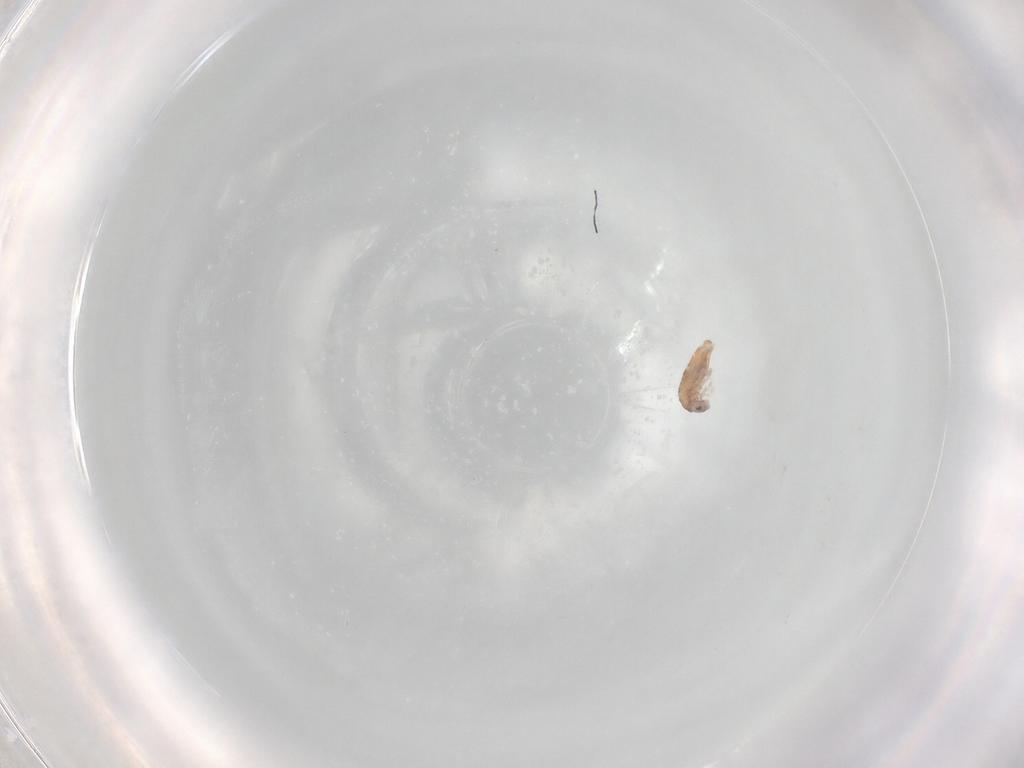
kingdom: Animalia
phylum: Arthropoda
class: Collembola
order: Entomobryomorpha
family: Entomobryidae
